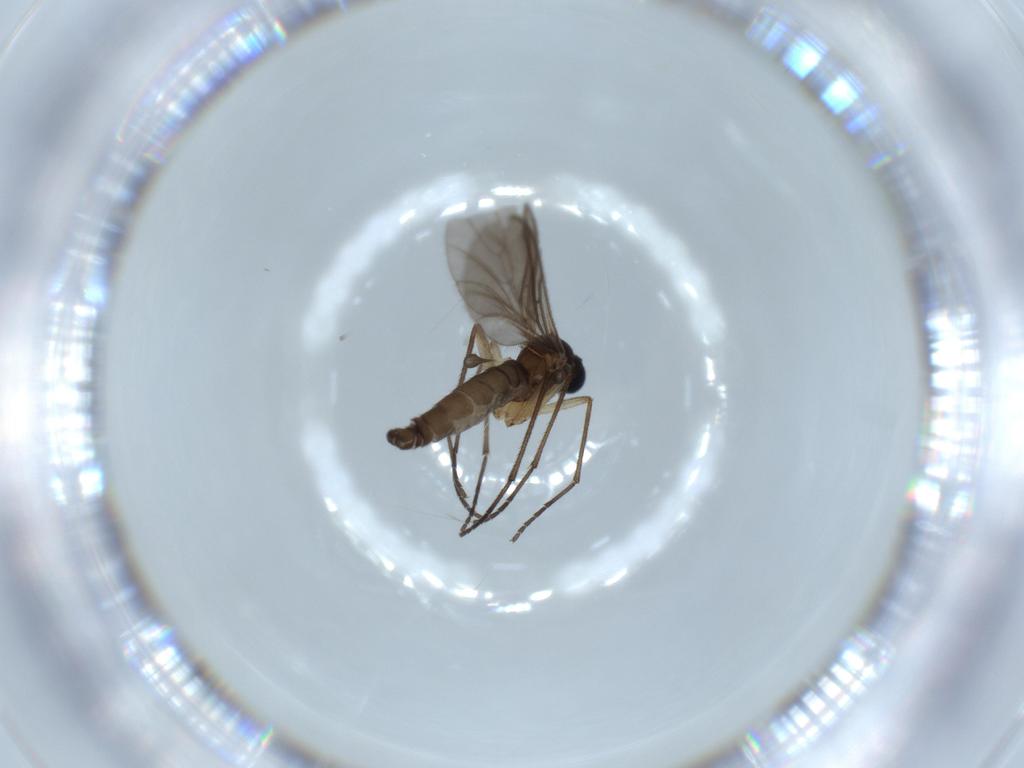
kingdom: Animalia
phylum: Arthropoda
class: Insecta
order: Diptera
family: Sciaridae
